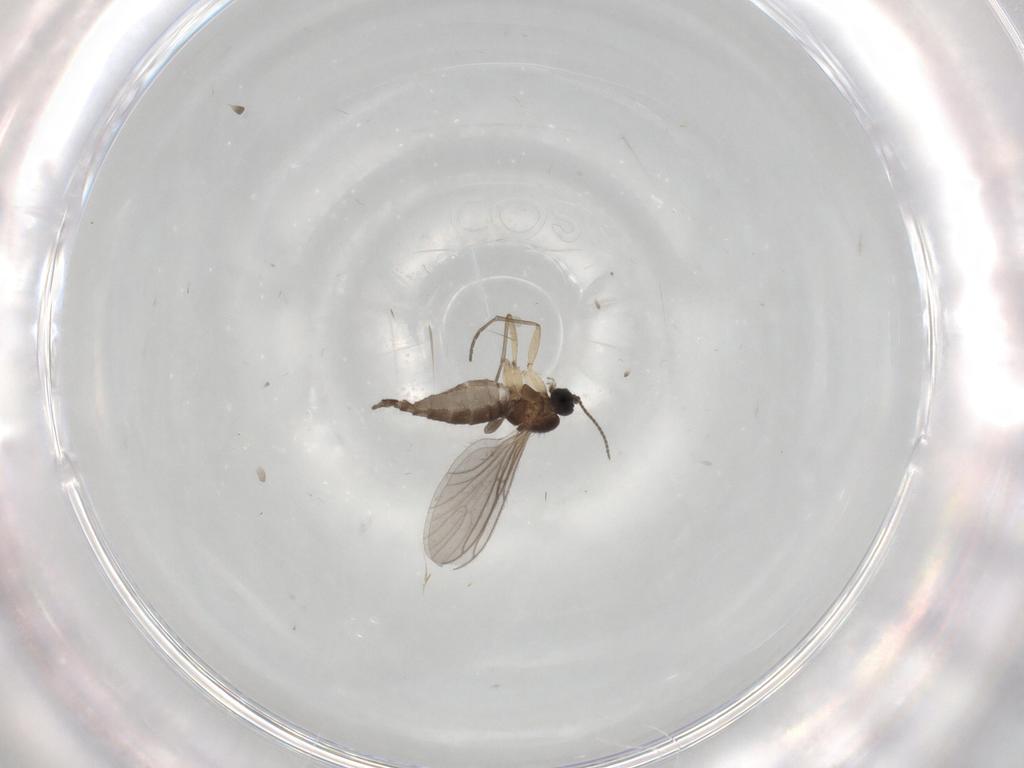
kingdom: Animalia
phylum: Arthropoda
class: Insecta
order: Diptera
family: Sciaridae
